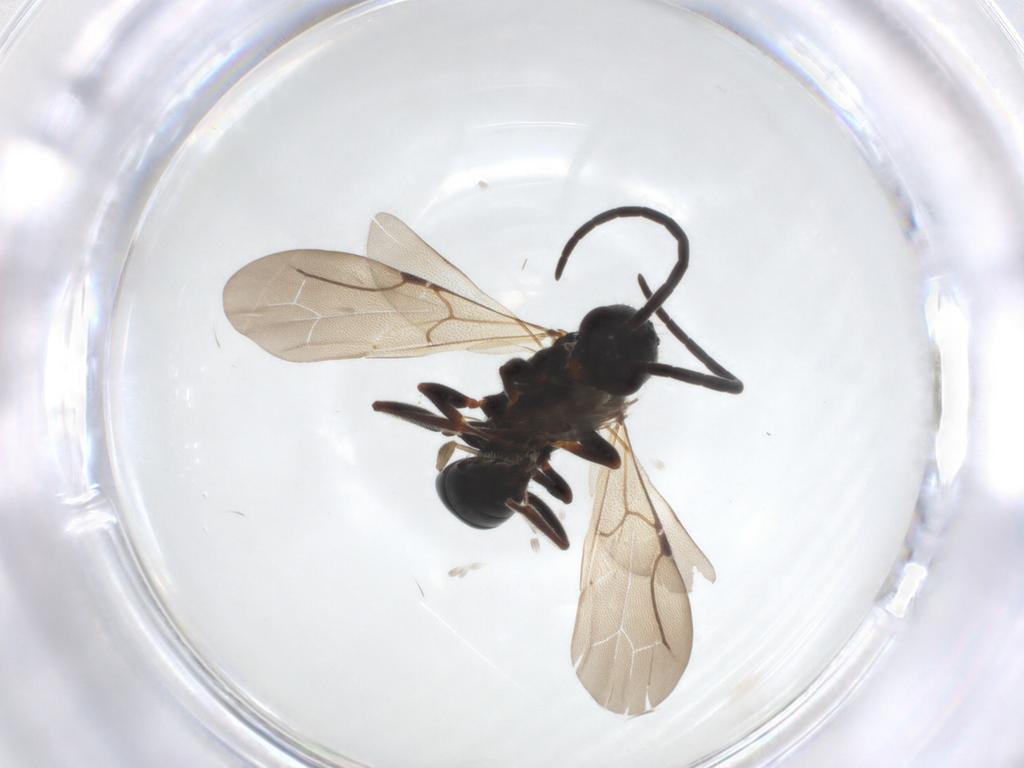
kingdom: Animalia
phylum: Arthropoda
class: Insecta
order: Hymenoptera
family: Bethylidae
